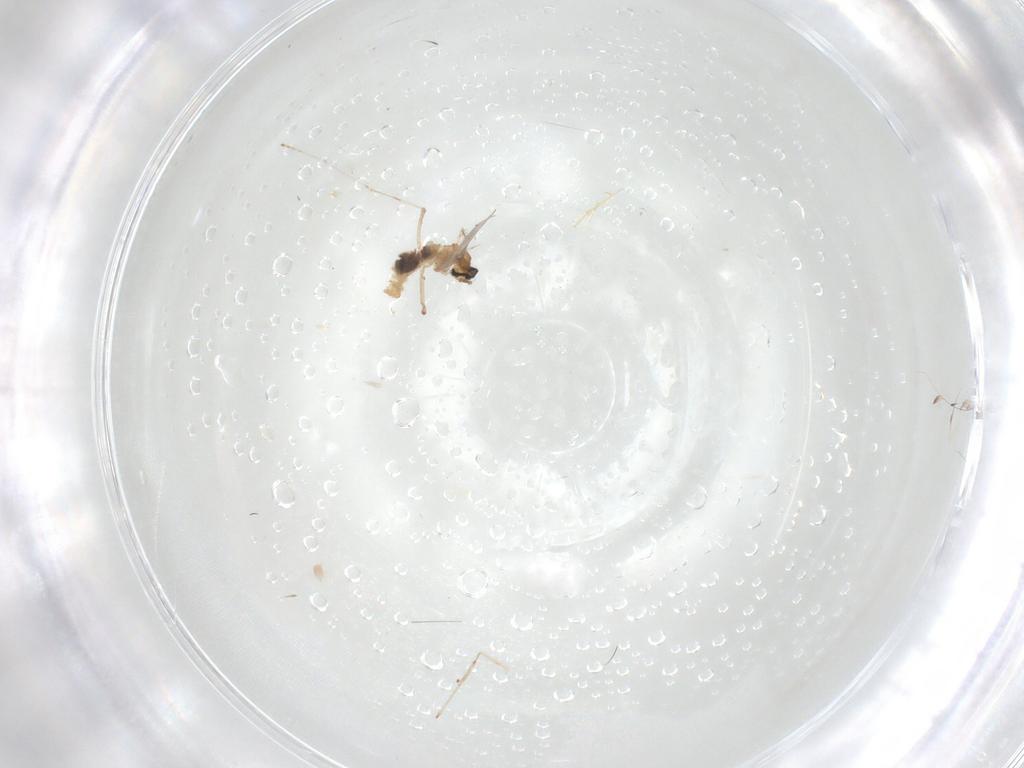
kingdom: Animalia
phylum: Arthropoda
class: Insecta
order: Diptera
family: Cecidomyiidae
